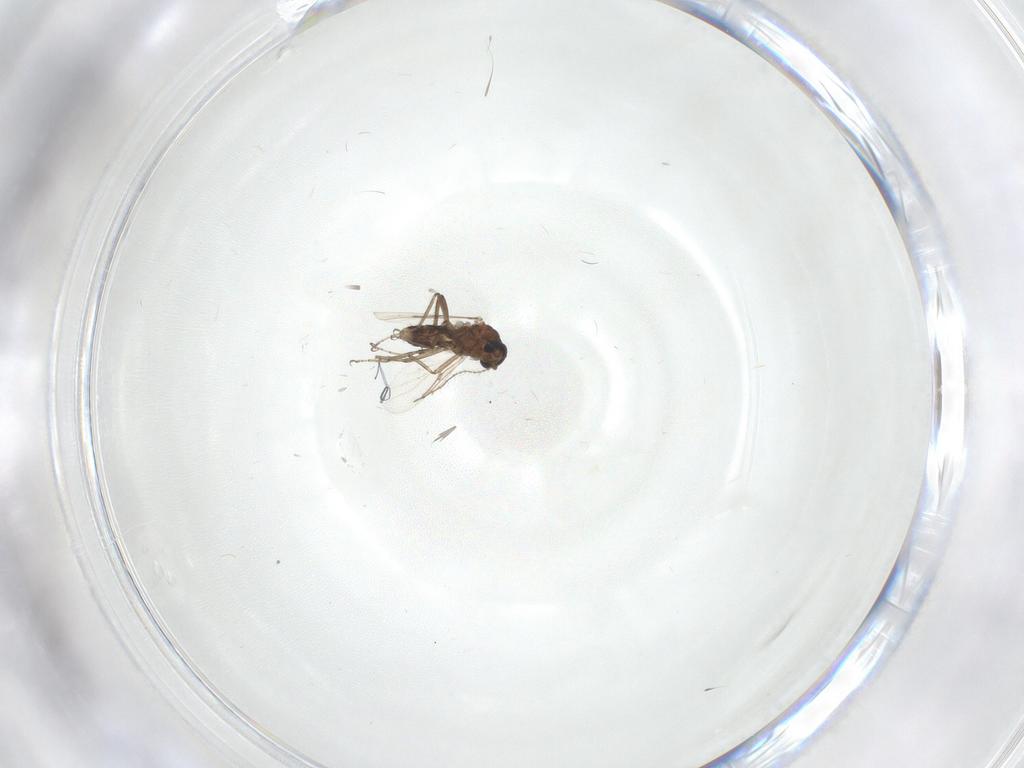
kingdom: Animalia
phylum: Arthropoda
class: Insecta
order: Diptera
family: Ceratopogonidae
